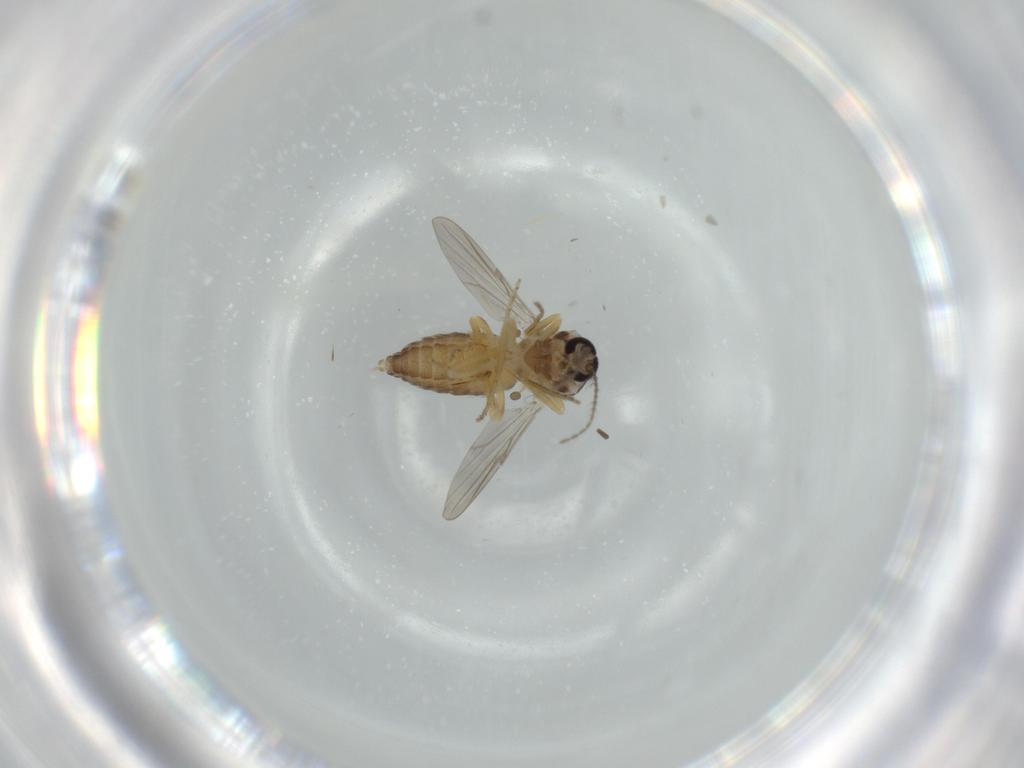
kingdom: Animalia
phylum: Arthropoda
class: Insecta
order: Diptera
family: Ceratopogonidae
